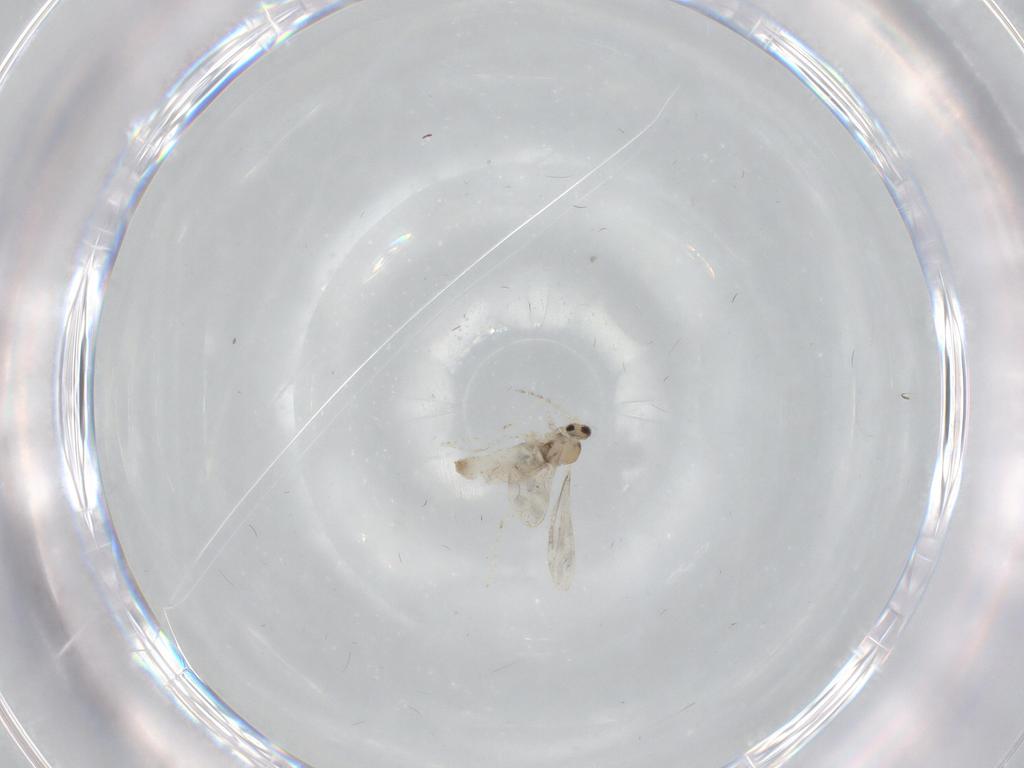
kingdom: Animalia
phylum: Arthropoda
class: Insecta
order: Diptera
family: Cecidomyiidae
